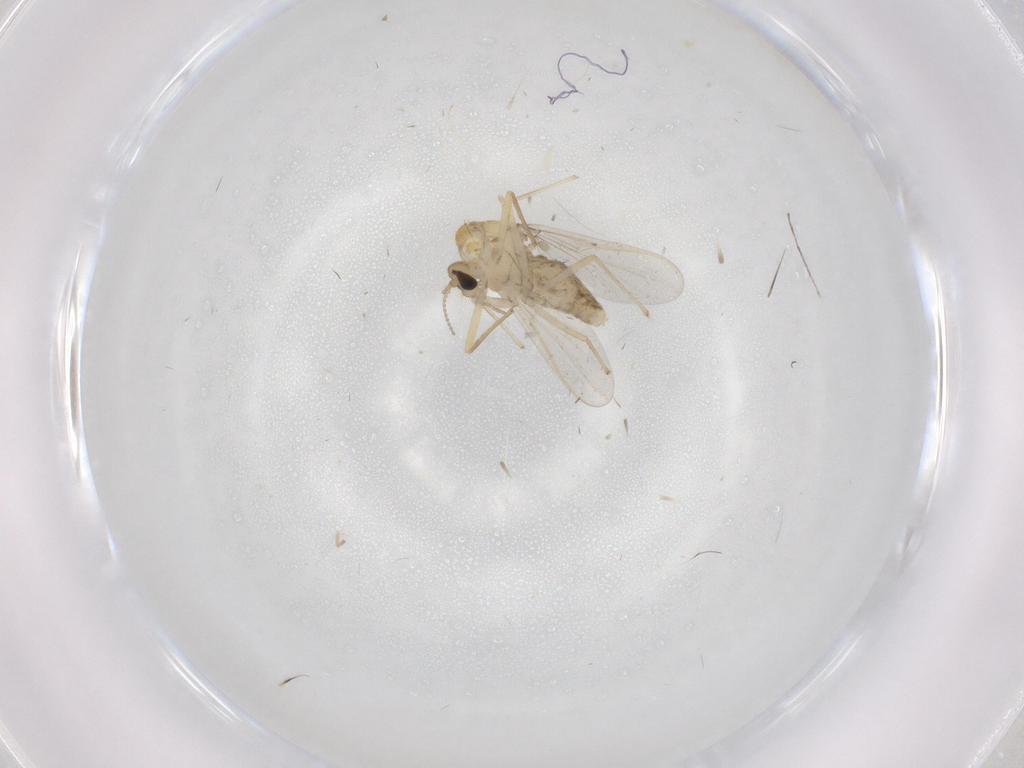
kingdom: Animalia
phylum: Arthropoda
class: Insecta
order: Diptera
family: Chironomidae
